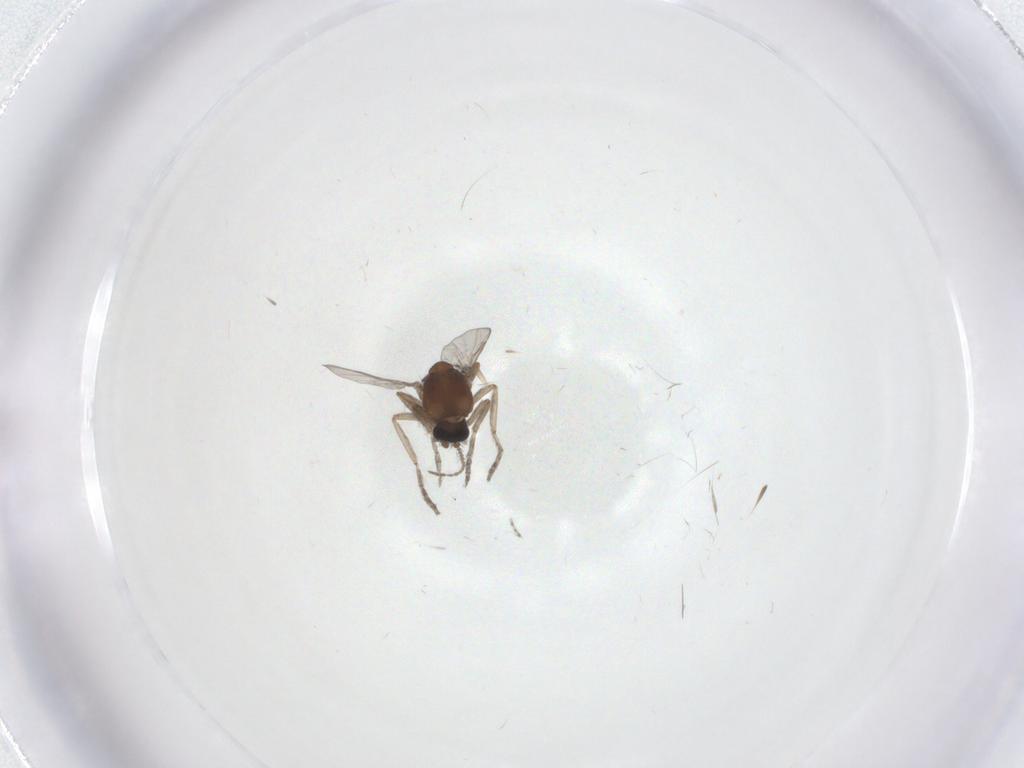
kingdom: Animalia
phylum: Arthropoda
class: Insecta
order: Diptera
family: Ceratopogonidae
